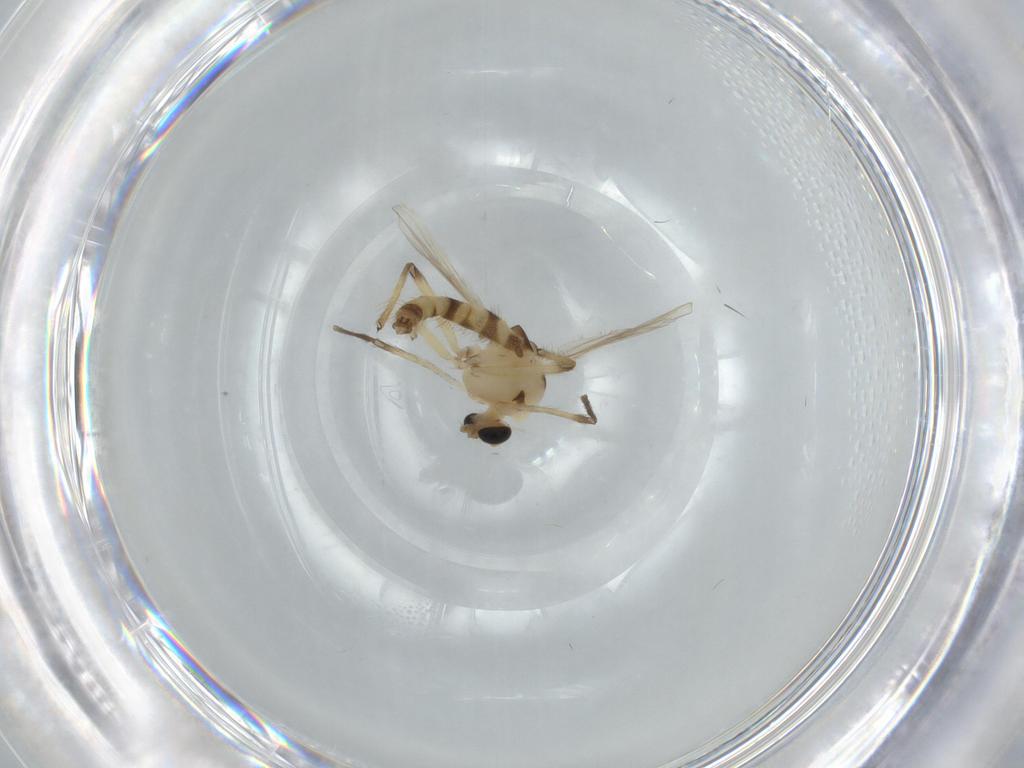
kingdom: Animalia
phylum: Arthropoda
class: Insecta
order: Diptera
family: Chironomidae
